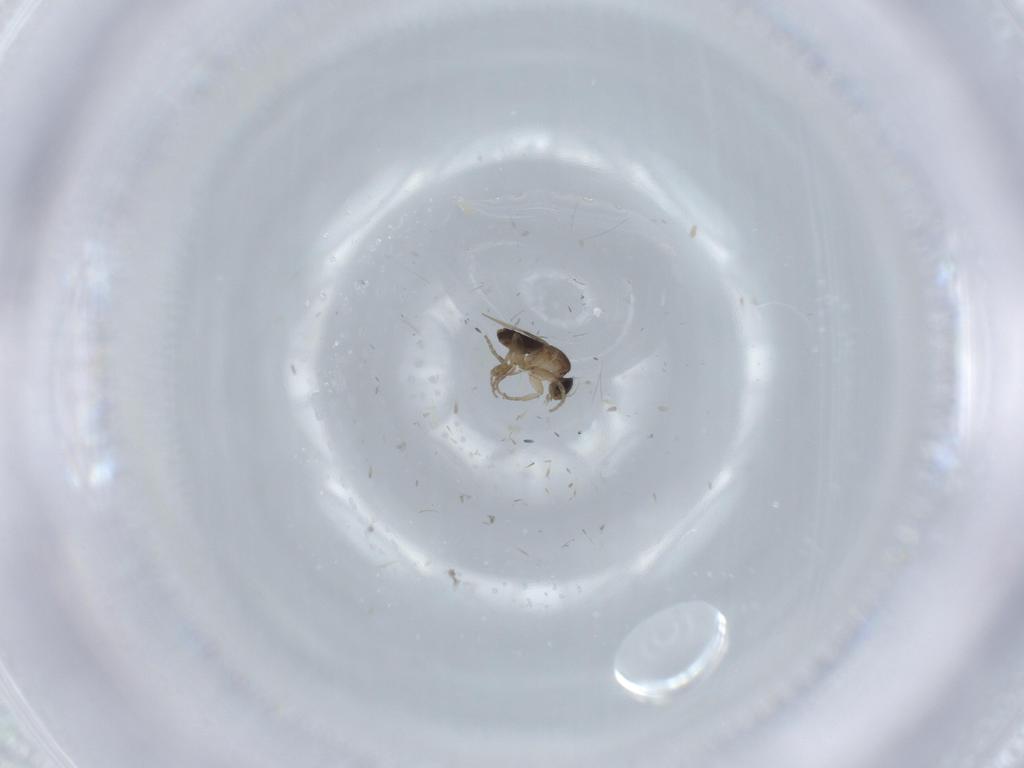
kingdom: Animalia
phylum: Arthropoda
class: Insecta
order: Diptera
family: Phoridae
